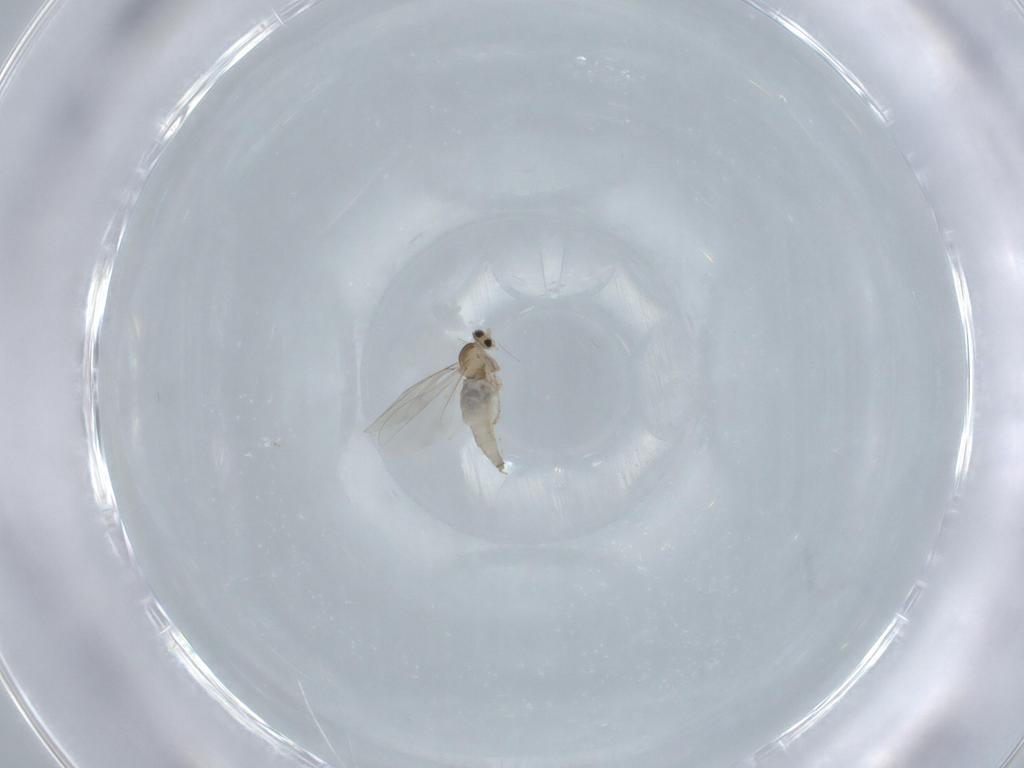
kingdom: Animalia
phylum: Arthropoda
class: Insecta
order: Diptera
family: Cecidomyiidae
